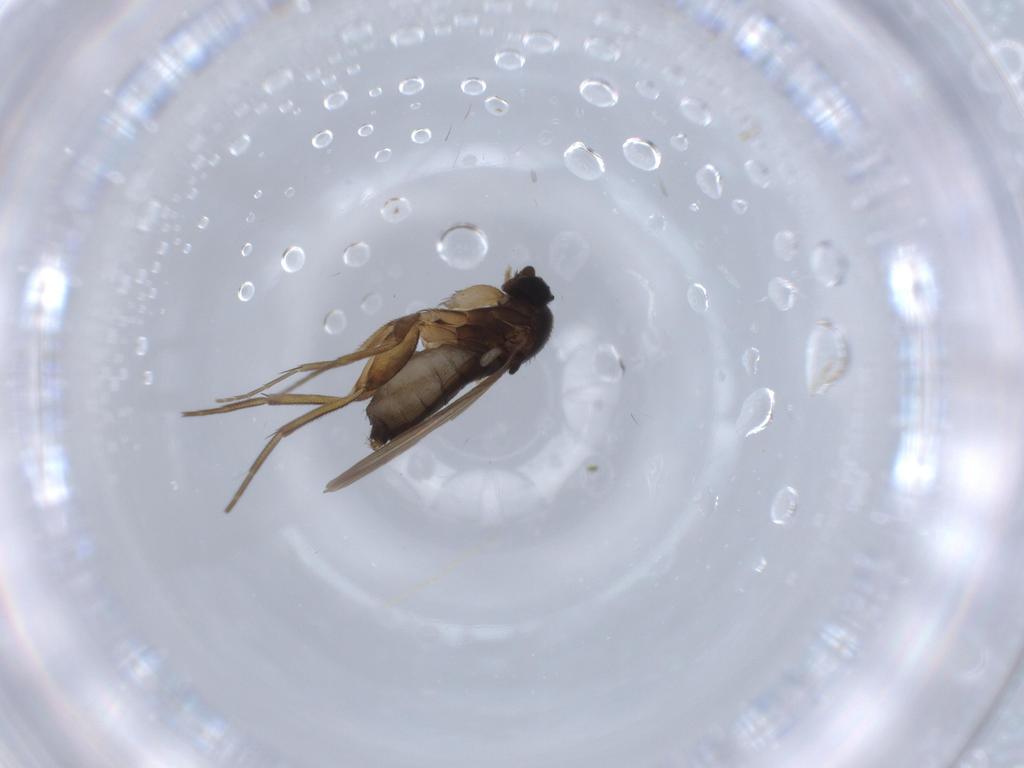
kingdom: Animalia
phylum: Arthropoda
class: Insecta
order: Diptera
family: Phoridae
